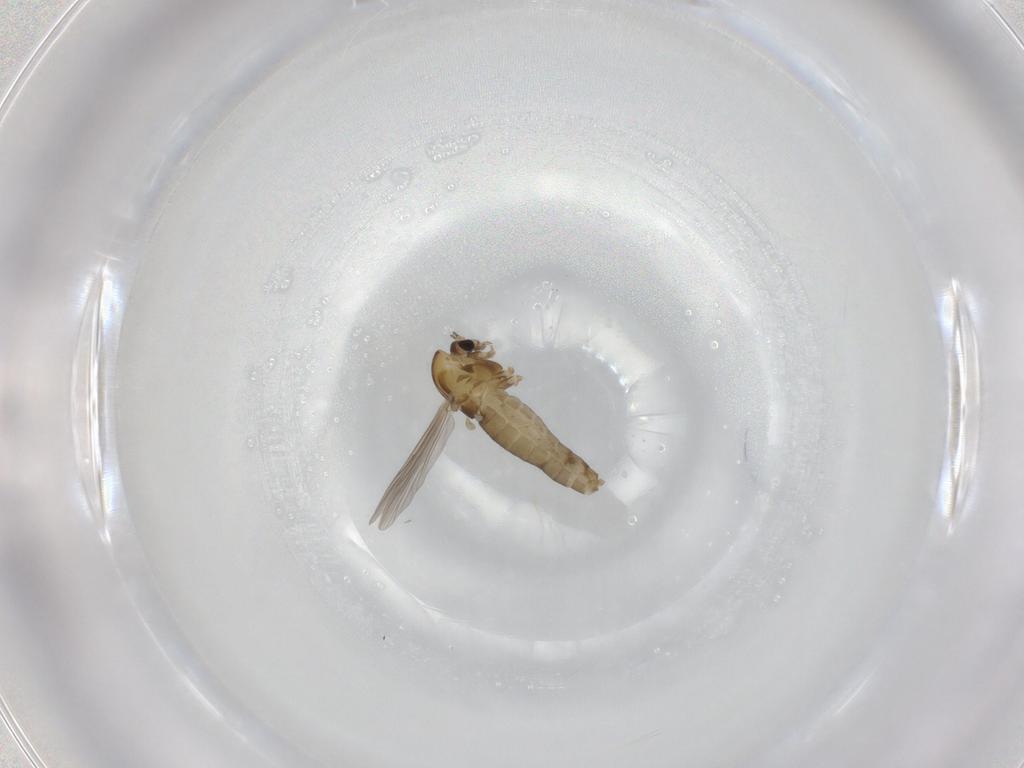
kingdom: Animalia
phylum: Arthropoda
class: Insecta
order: Diptera
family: Chironomidae
